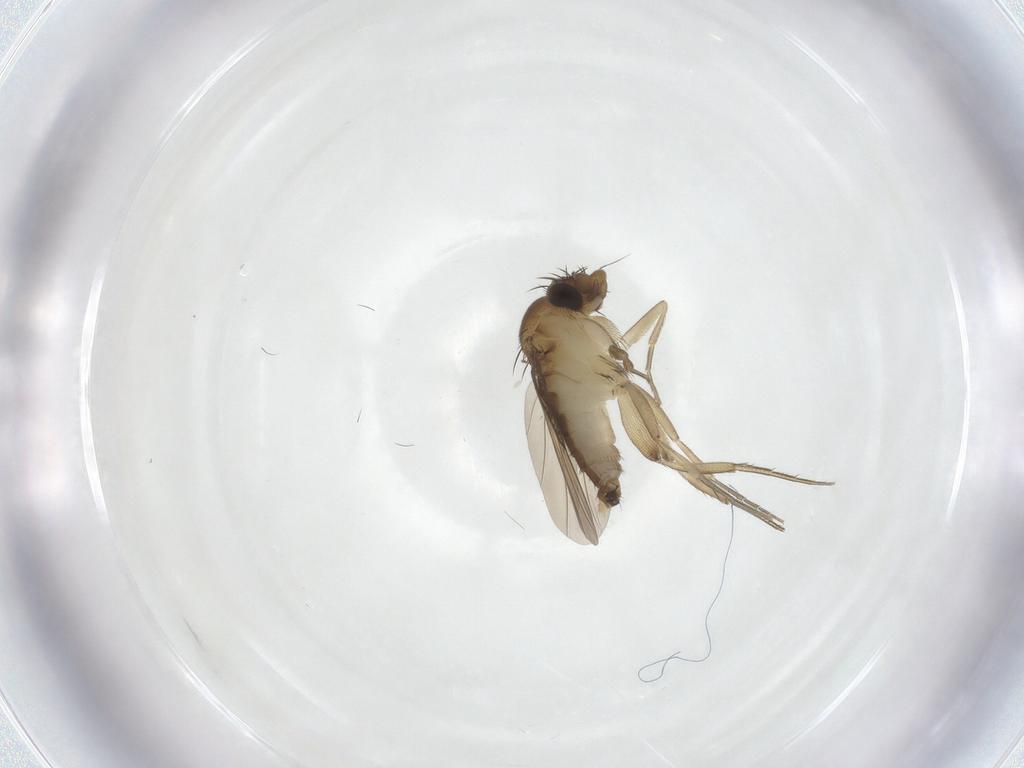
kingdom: Animalia
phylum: Arthropoda
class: Insecta
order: Diptera
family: Phoridae
